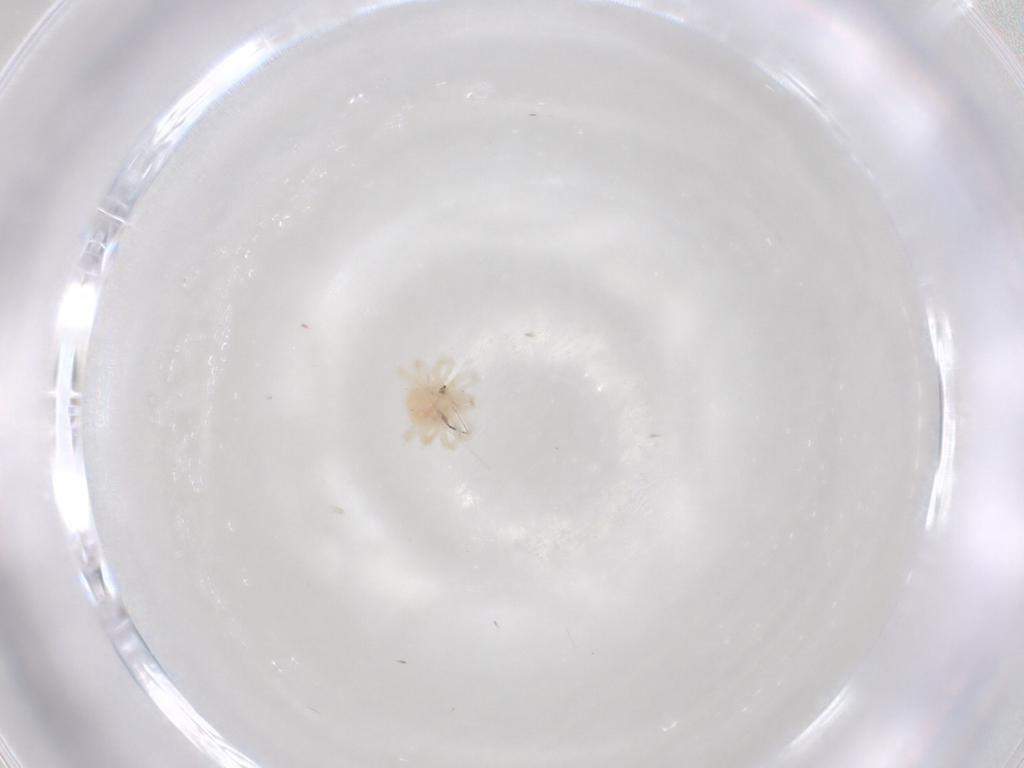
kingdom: Animalia
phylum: Arthropoda
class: Arachnida
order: Trombidiformes
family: Anystidae
